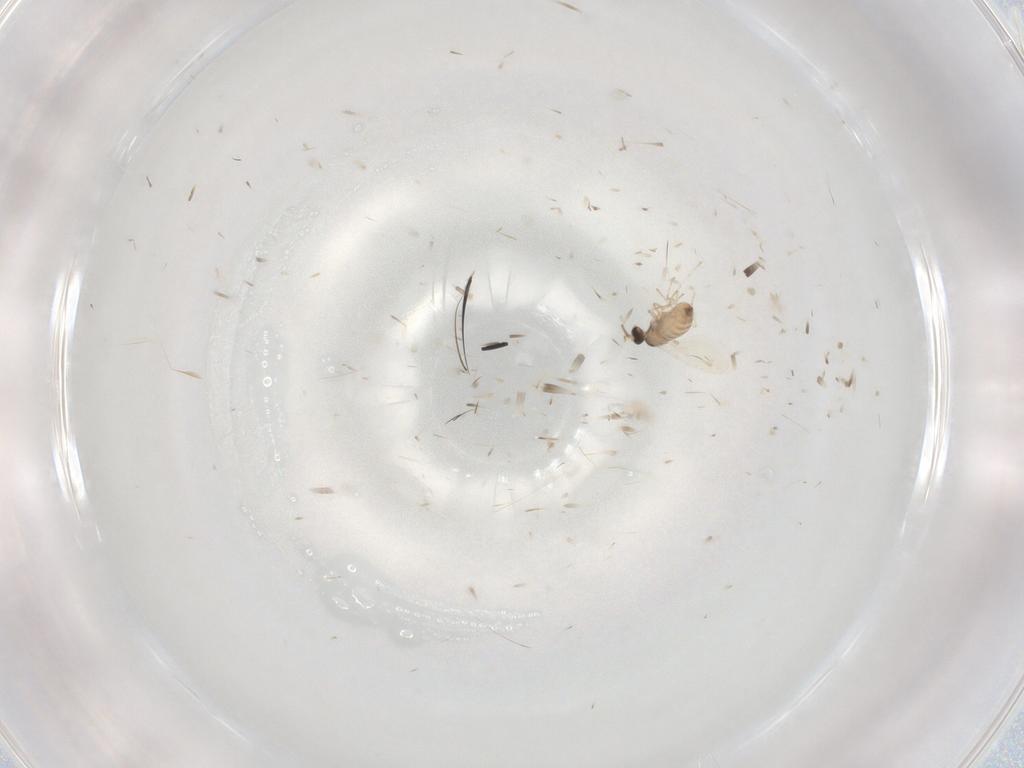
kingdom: Animalia
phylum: Arthropoda
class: Insecta
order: Diptera
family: Cecidomyiidae
